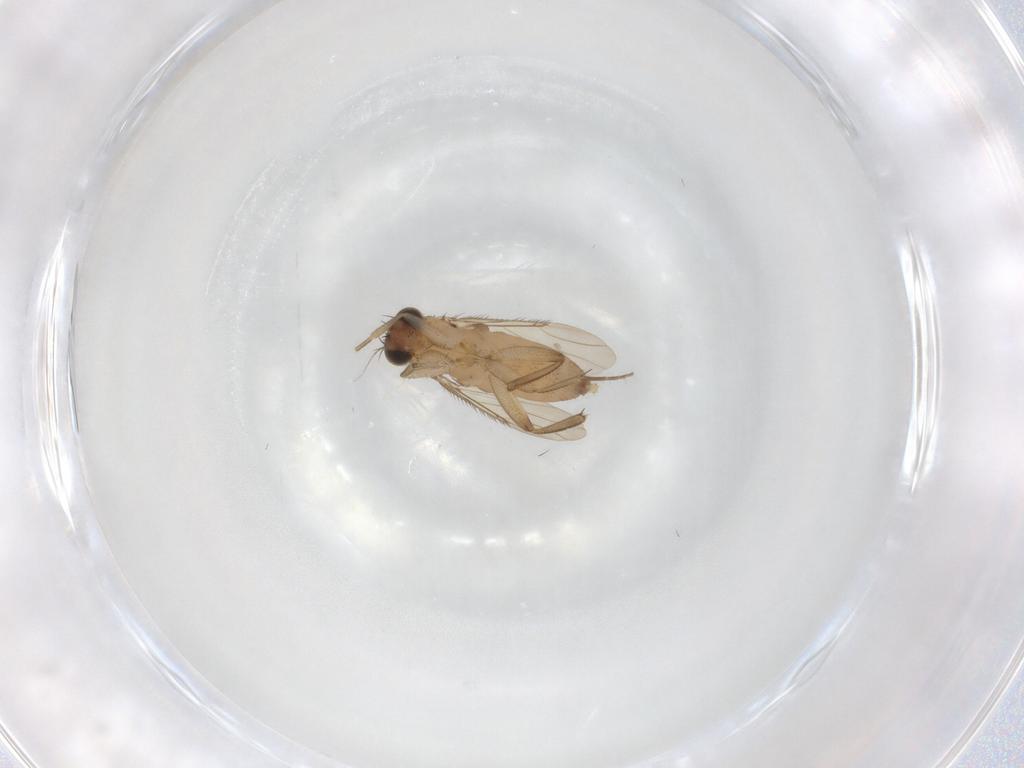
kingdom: Animalia
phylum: Arthropoda
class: Insecta
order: Diptera
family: Phoridae
